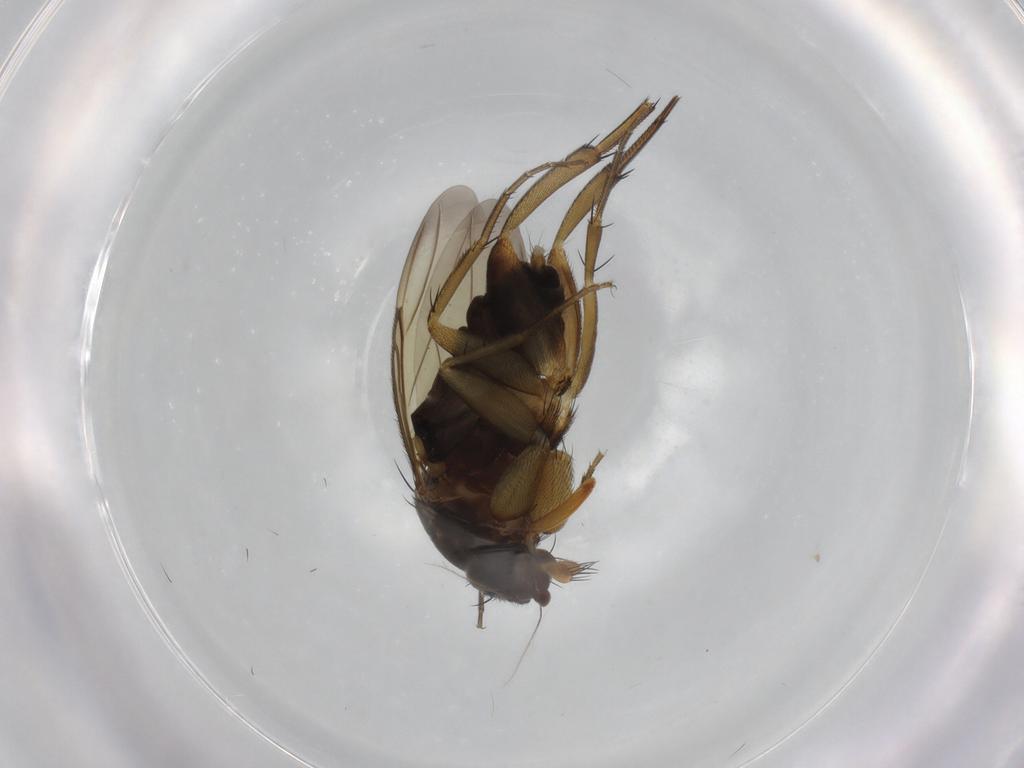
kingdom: Animalia
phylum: Arthropoda
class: Insecta
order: Diptera
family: Phoridae
